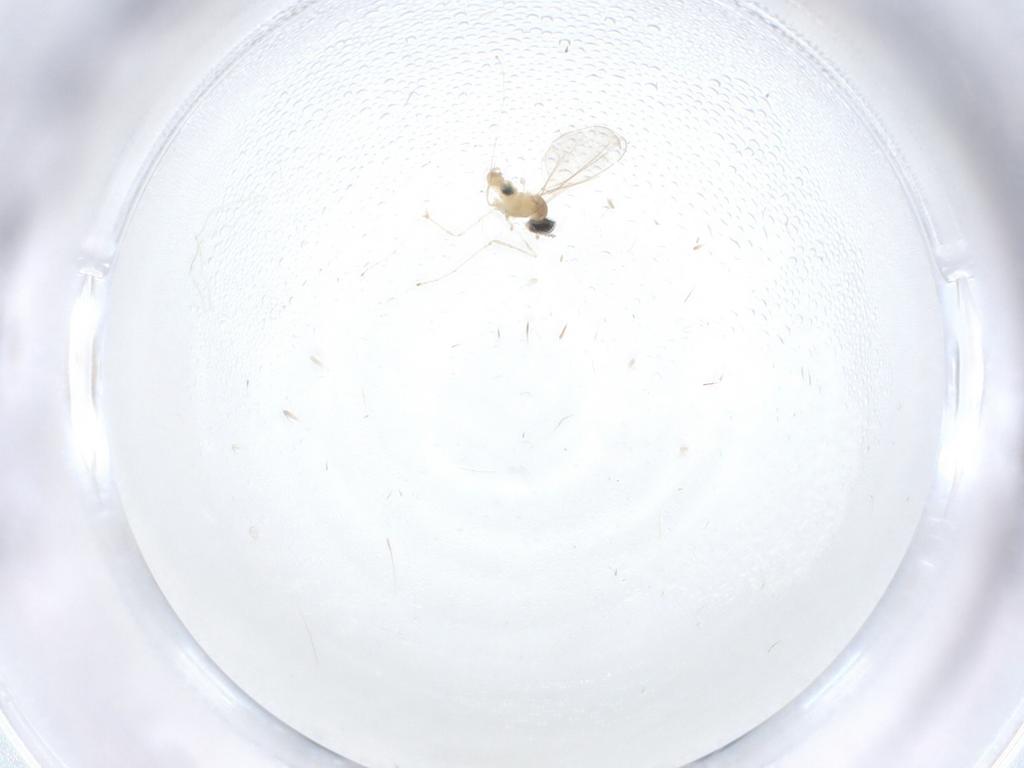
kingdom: Animalia
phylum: Arthropoda
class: Insecta
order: Diptera
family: Cecidomyiidae
